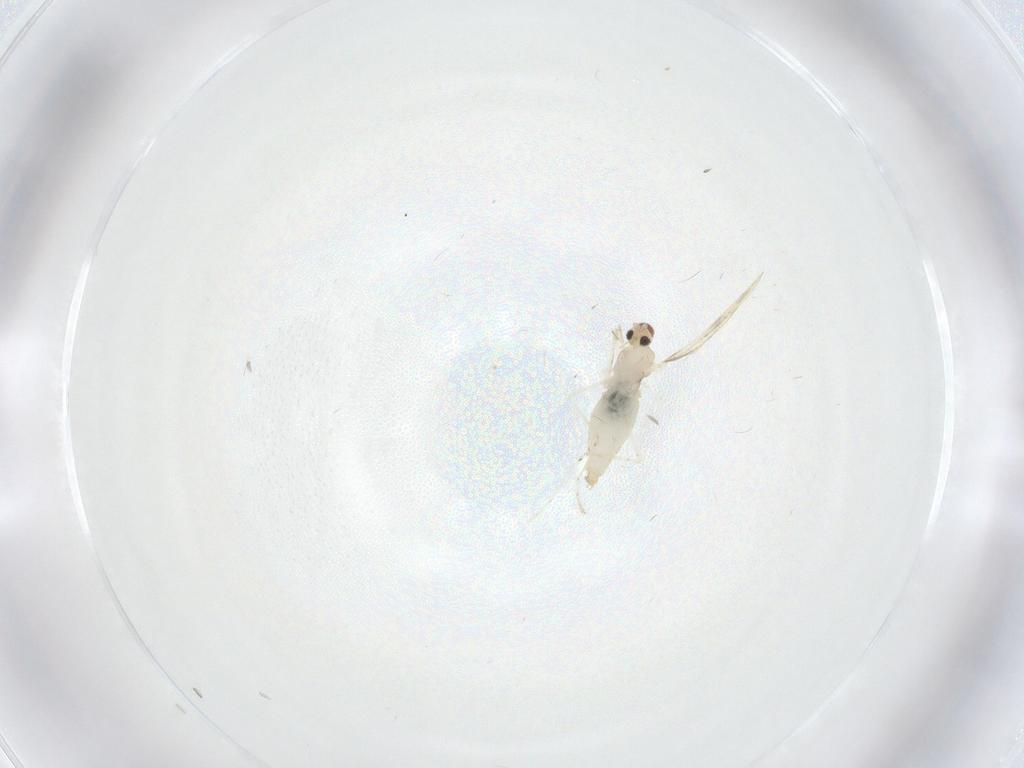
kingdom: Animalia
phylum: Arthropoda
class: Insecta
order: Diptera
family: Cecidomyiidae
